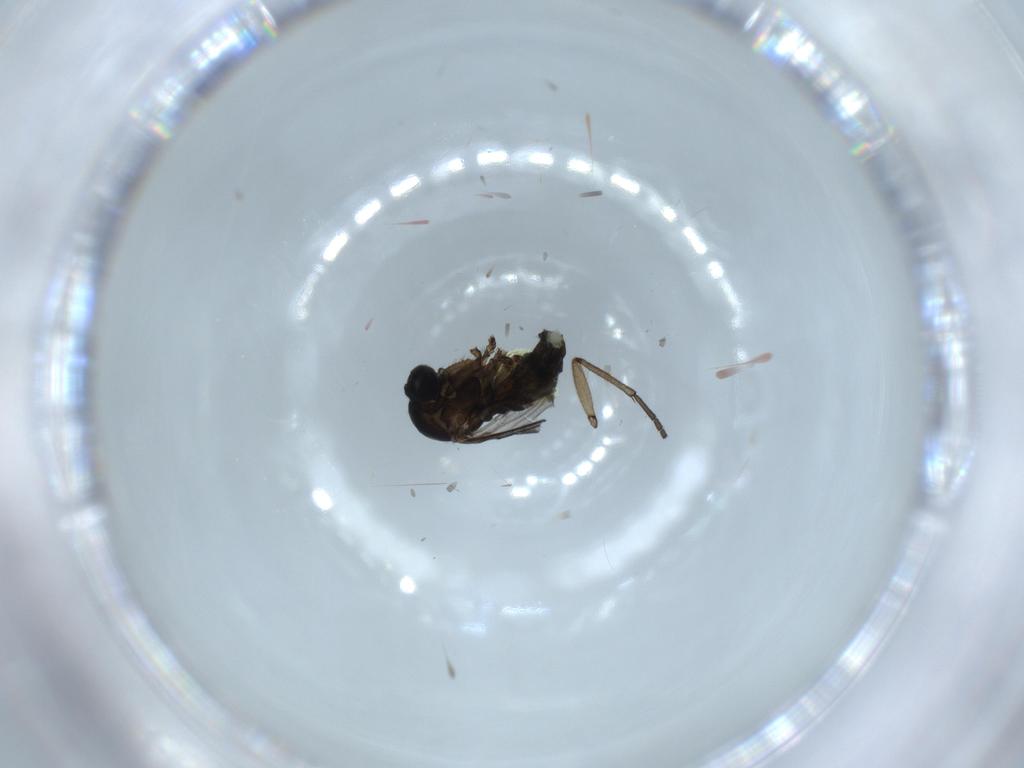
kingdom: Animalia
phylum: Arthropoda
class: Insecta
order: Diptera
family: Sciaridae
